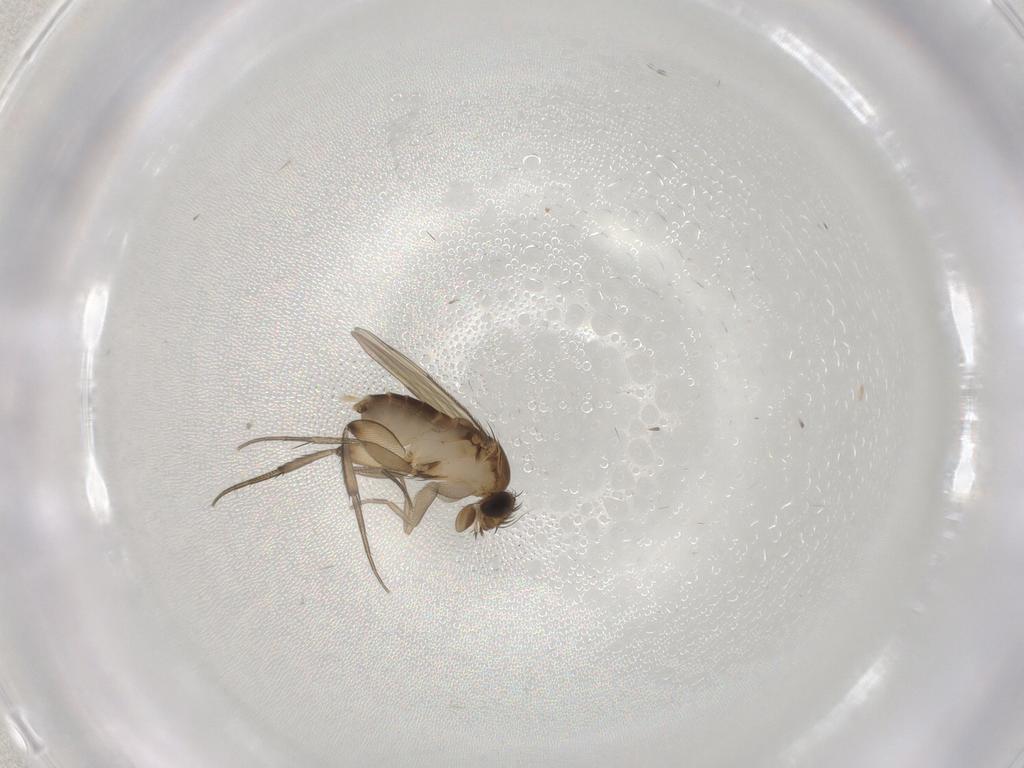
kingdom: Animalia
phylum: Arthropoda
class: Insecta
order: Diptera
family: Phoridae
